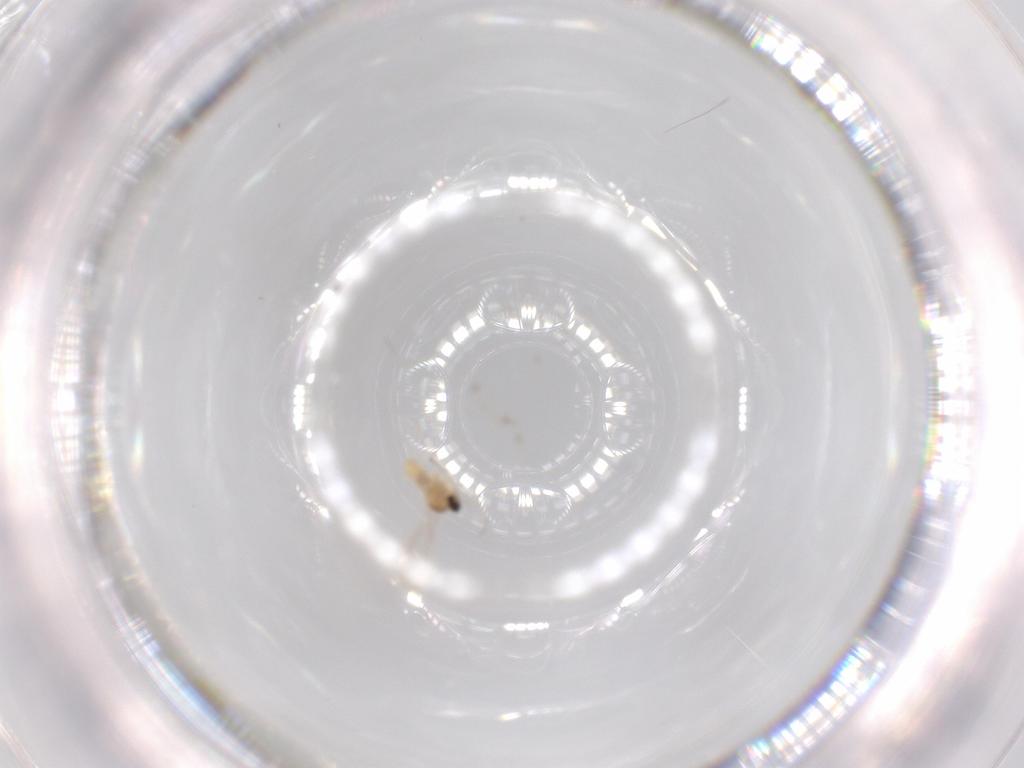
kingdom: Animalia
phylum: Arthropoda
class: Insecta
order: Diptera
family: Cecidomyiidae
